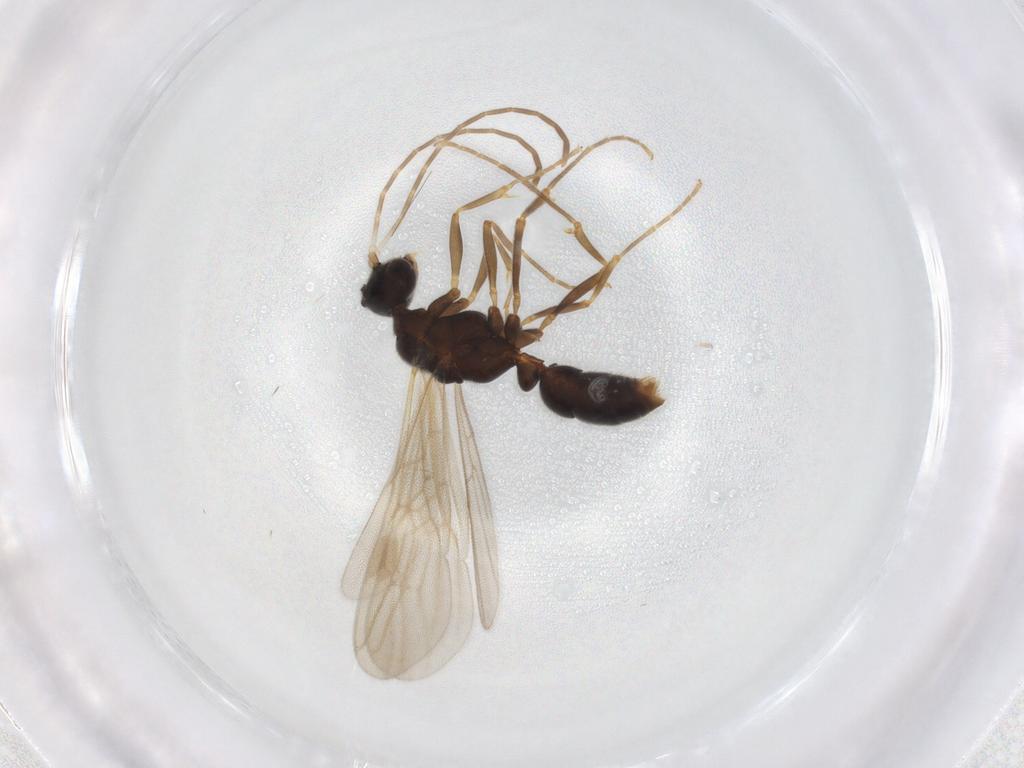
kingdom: Animalia
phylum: Arthropoda
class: Insecta
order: Hymenoptera
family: Formicidae
